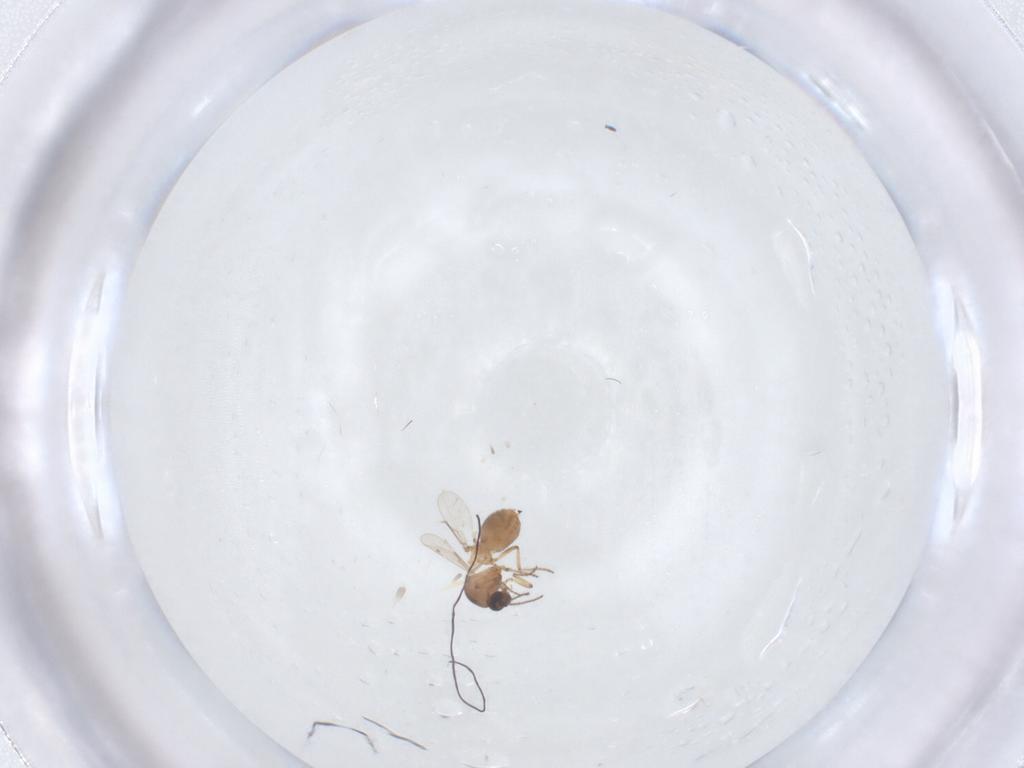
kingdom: Animalia
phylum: Arthropoda
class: Insecta
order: Diptera
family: Ceratopogonidae
